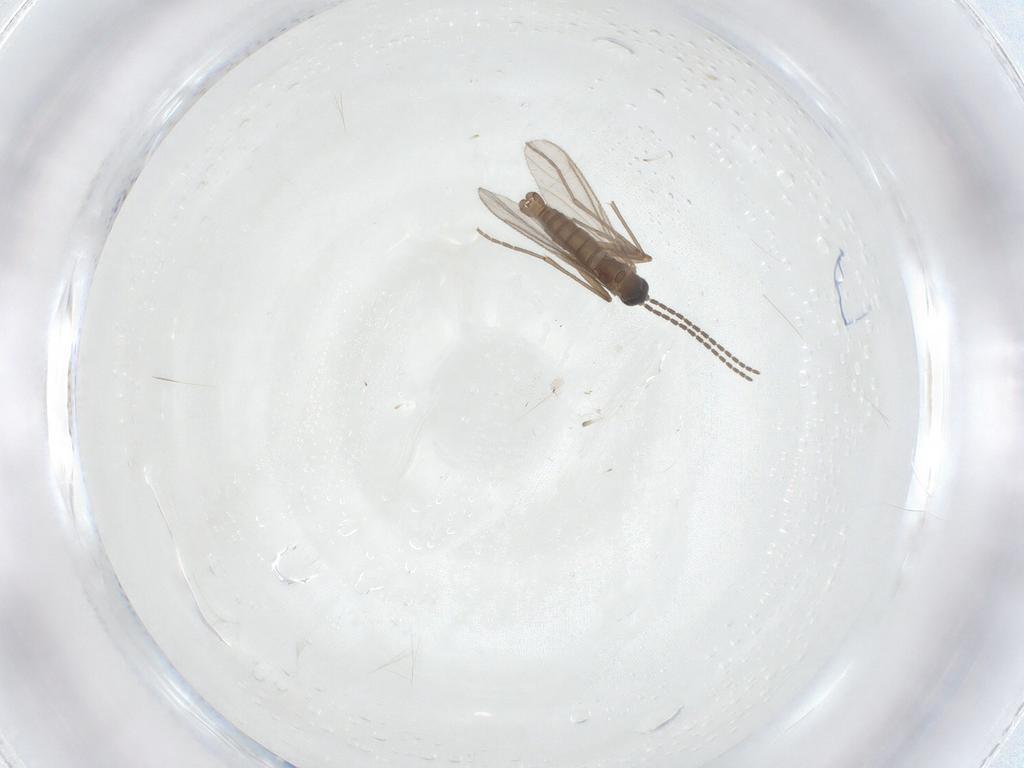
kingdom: Animalia
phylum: Arthropoda
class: Insecta
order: Diptera
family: Sciaridae
